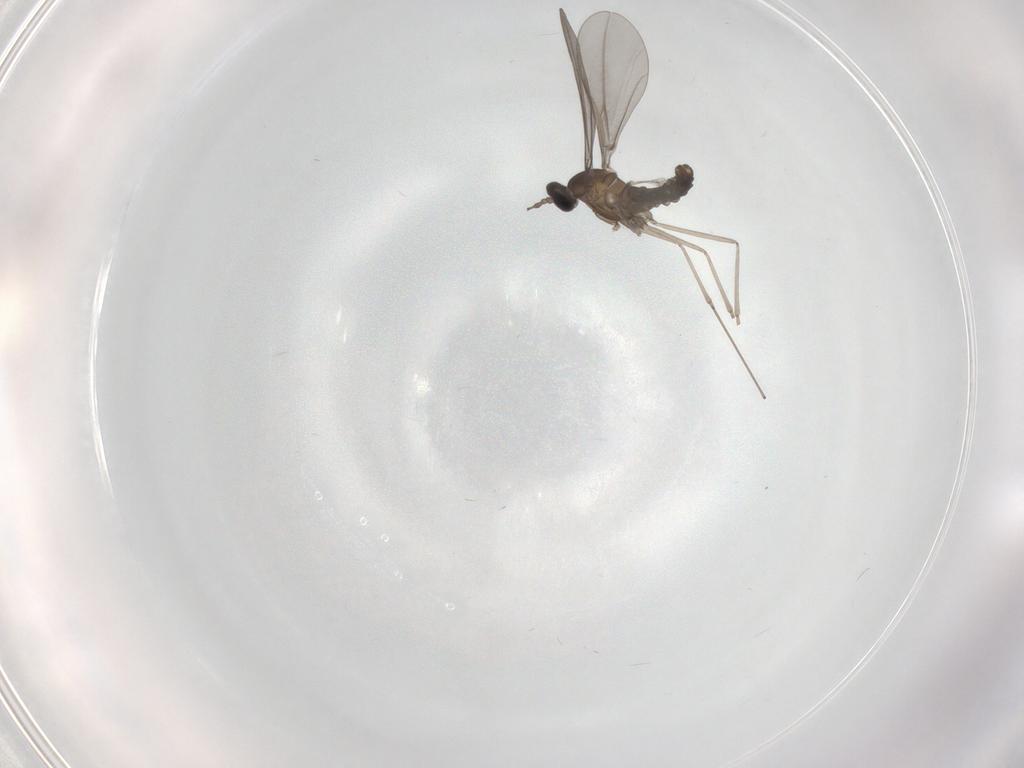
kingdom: Animalia
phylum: Arthropoda
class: Insecta
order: Diptera
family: Cecidomyiidae
